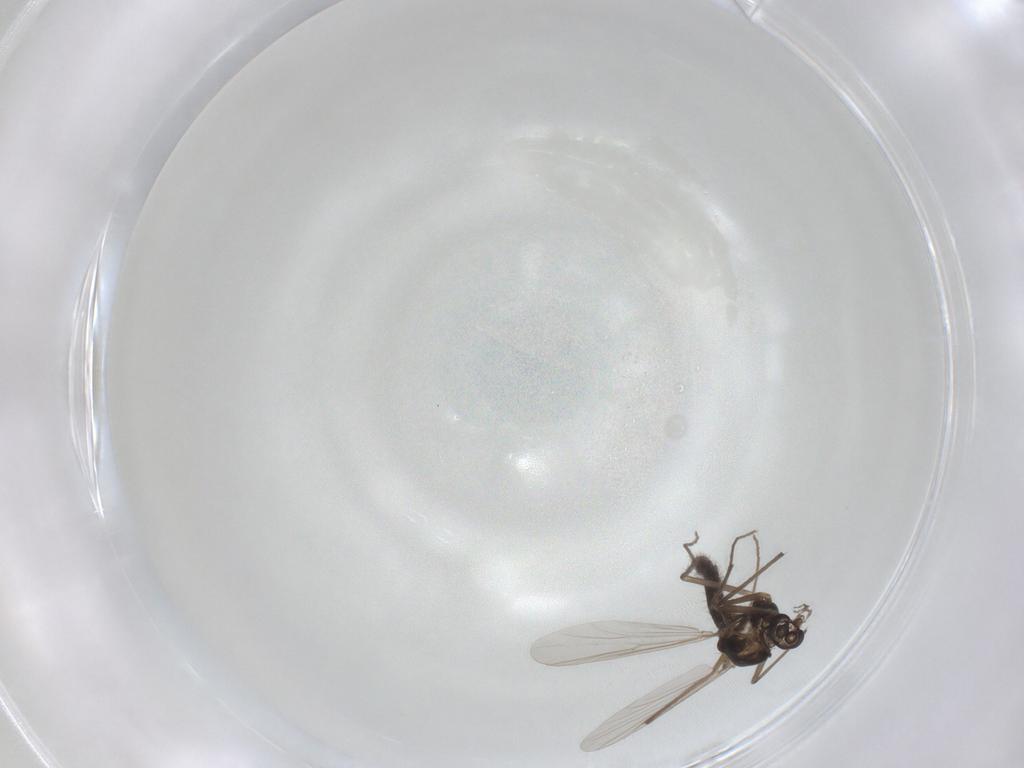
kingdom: Animalia
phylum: Arthropoda
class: Insecta
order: Diptera
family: Chironomidae
